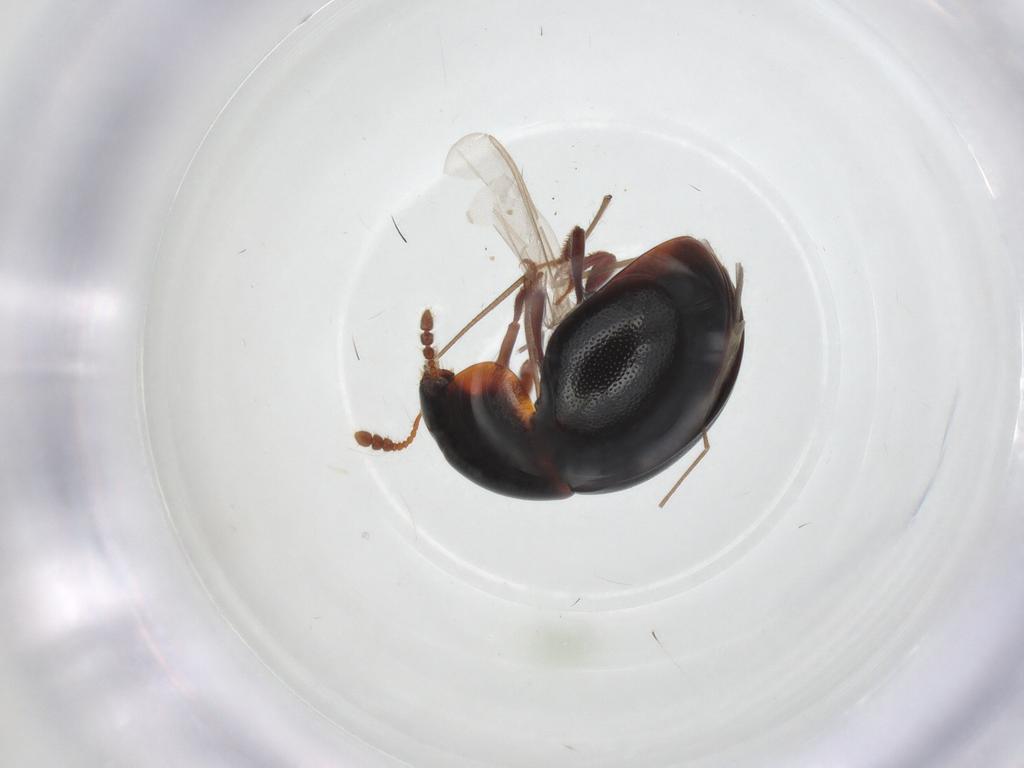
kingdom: Animalia
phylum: Arthropoda
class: Insecta
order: Coleoptera
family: Leiodidae
